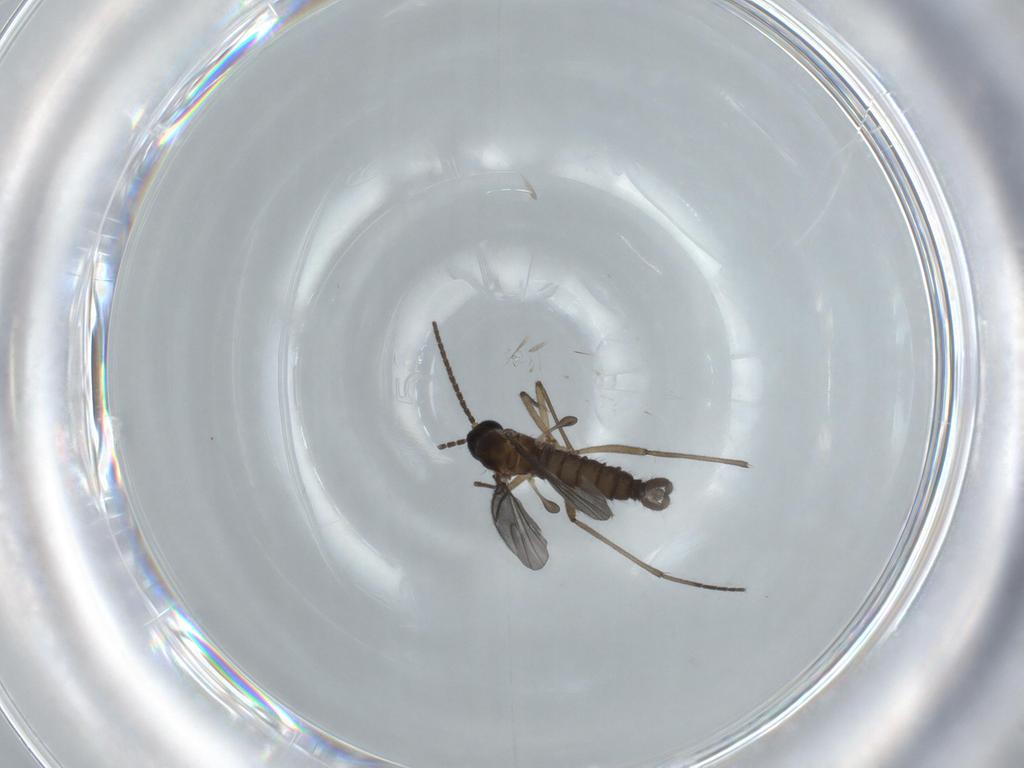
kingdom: Animalia
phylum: Arthropoda
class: Insecta
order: Diptera
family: Sciaridae
